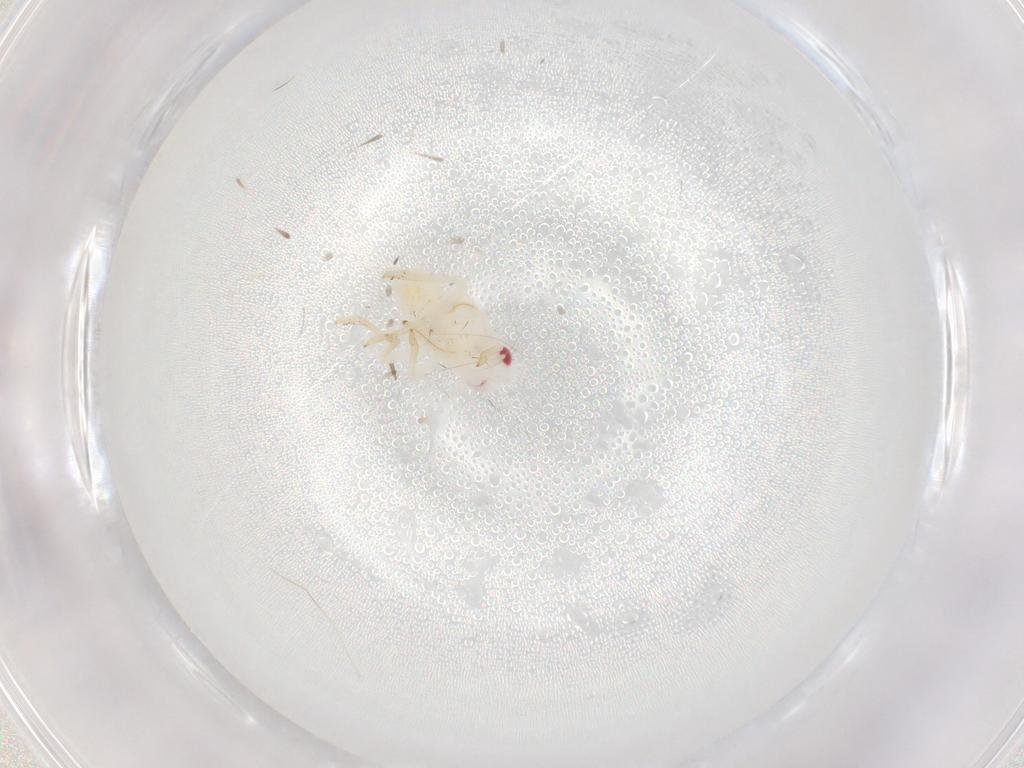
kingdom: Animalia
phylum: Arthropoda
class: Insecta
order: Hemiptera
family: Tropiduchidae
